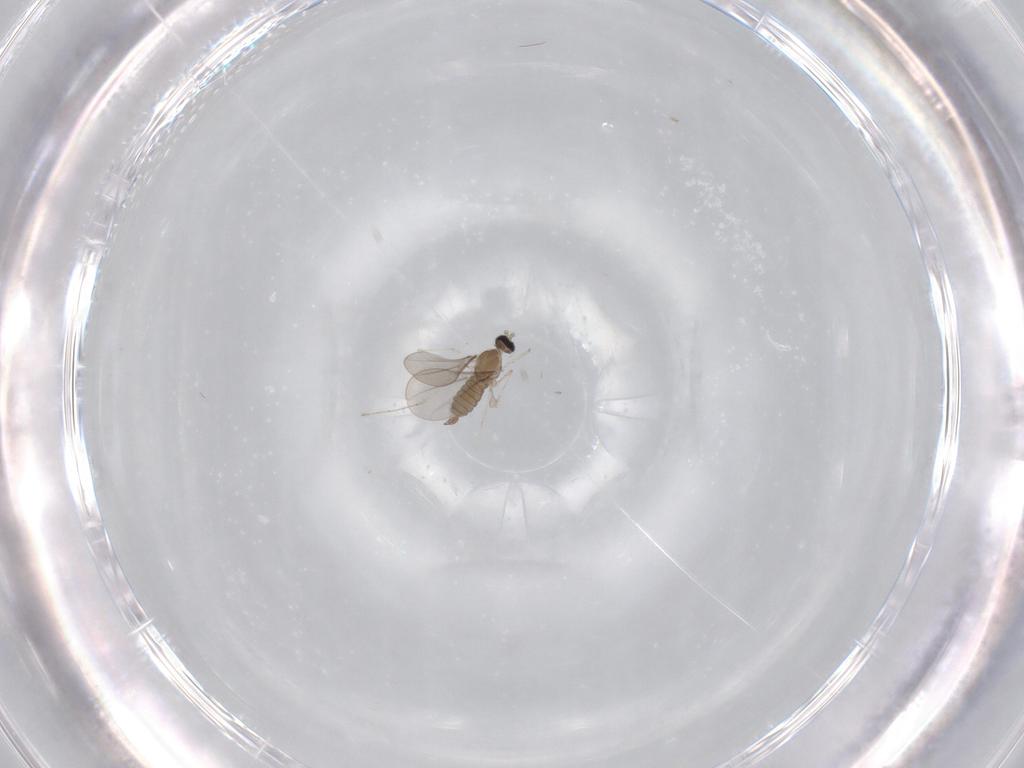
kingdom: Animalia
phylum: Arthropoda
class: Insecta
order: Diptera
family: Cecidomyiidae
